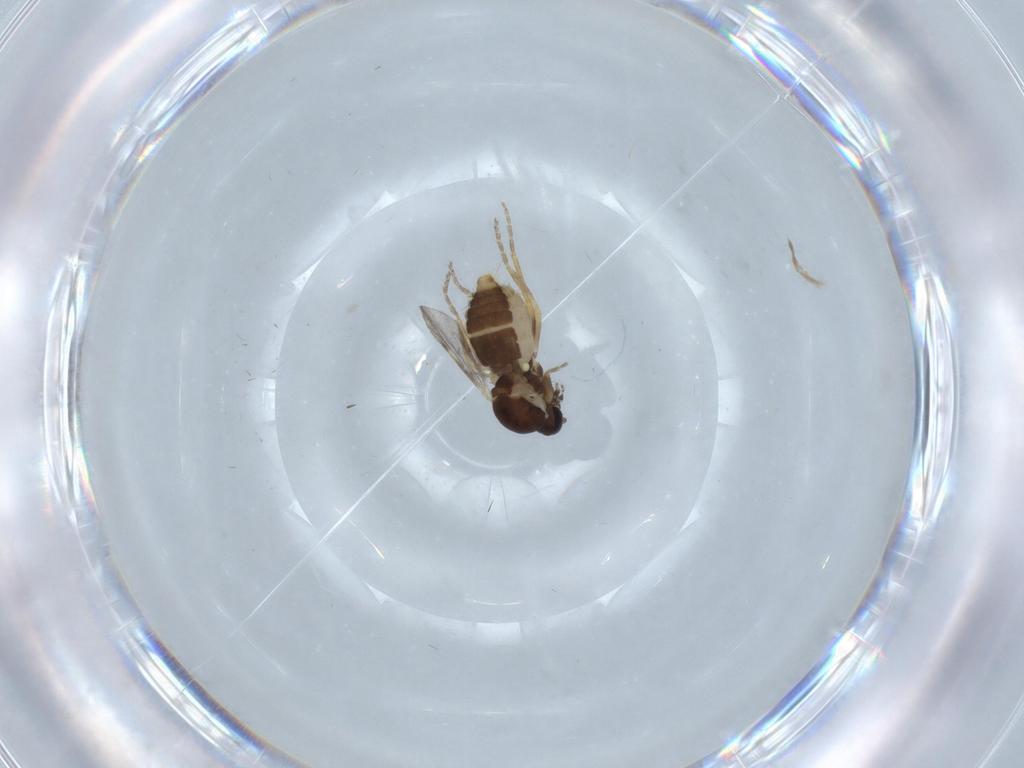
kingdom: Animalia
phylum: Arthropoda
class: Insecta
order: Diptera
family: Ceratopogonidae
